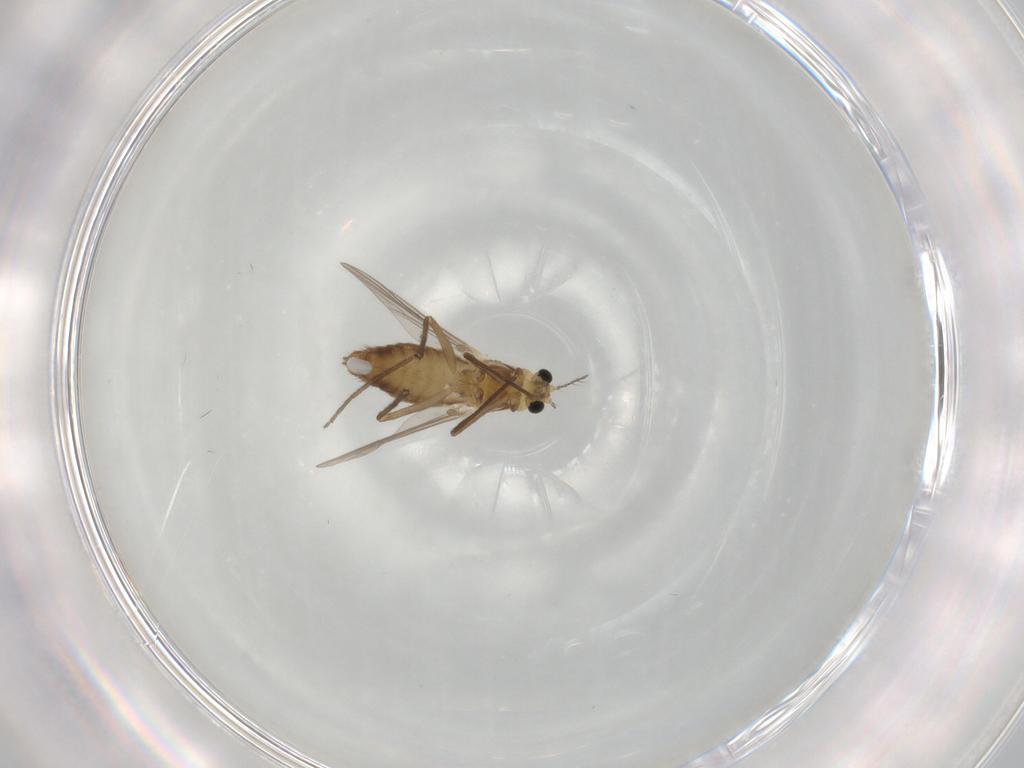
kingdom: Animalia
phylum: Arthropoda
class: Insecta
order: Diptera
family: Chironomidae
